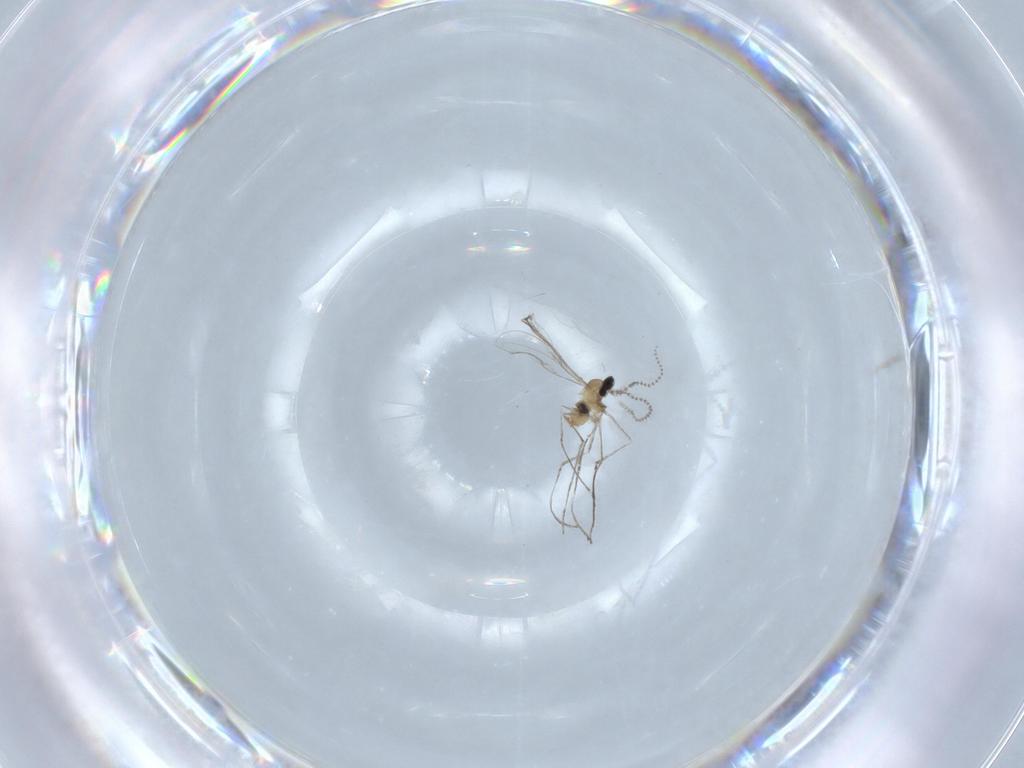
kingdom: Animalia
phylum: Arthropoda
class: Insecta
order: Diptera
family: Cecidomyiidae
